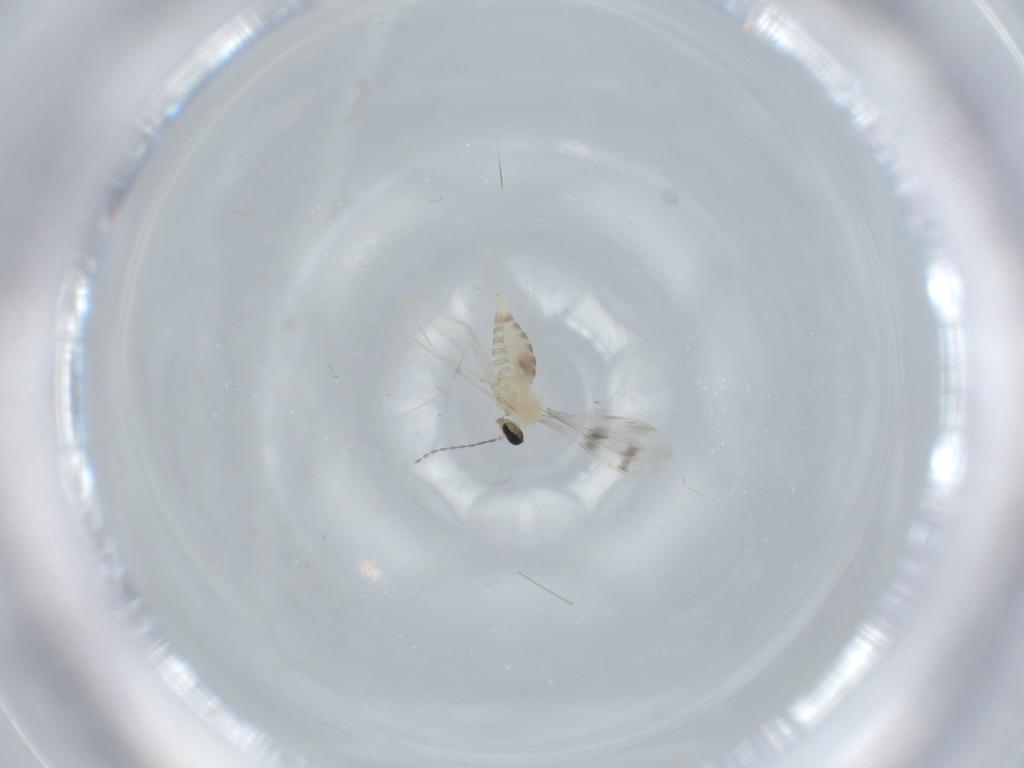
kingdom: Animalia
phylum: Arthropoda
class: Insecta
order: Diptera
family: Cecidomyiidae
